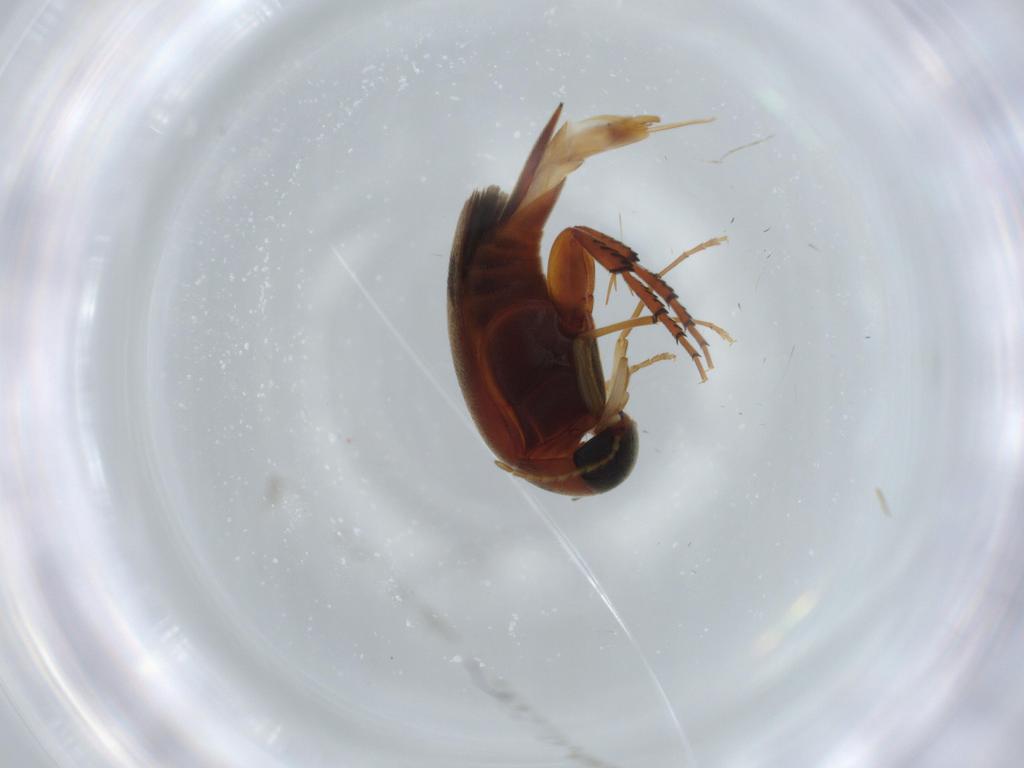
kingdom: Animalia
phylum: Arthropoda
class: Insecta
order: Coleoptera
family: Mordellidae
